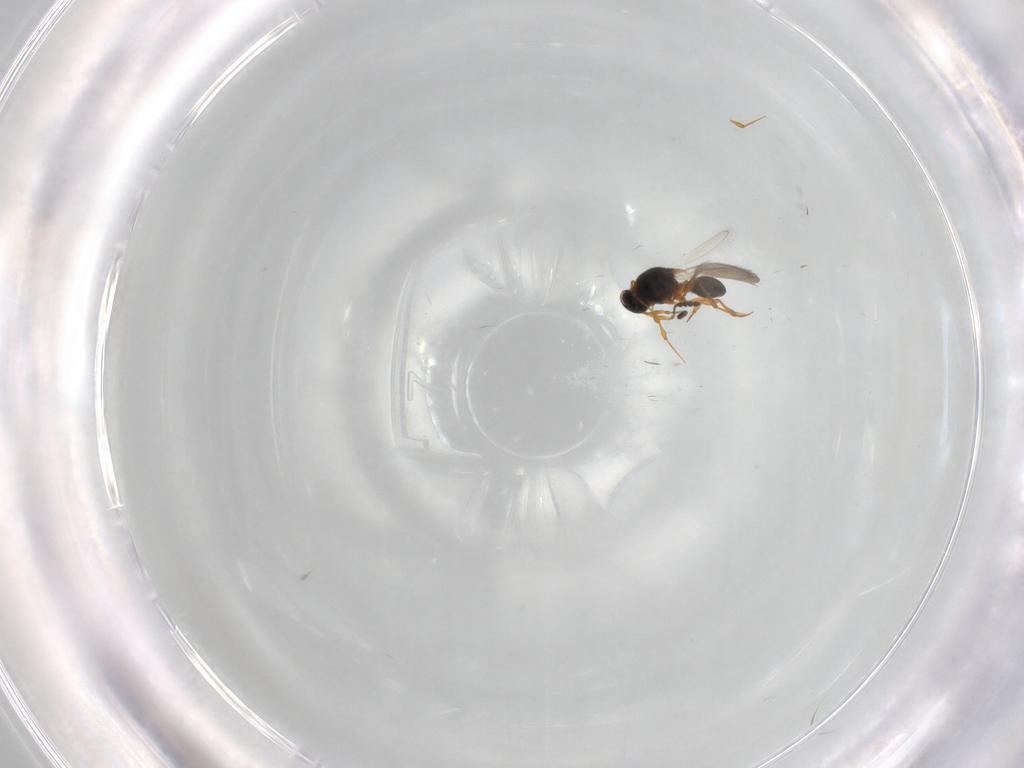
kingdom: Animalia
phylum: Arthropoda
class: Insecta
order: Hymenoptera
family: Platygastridae
